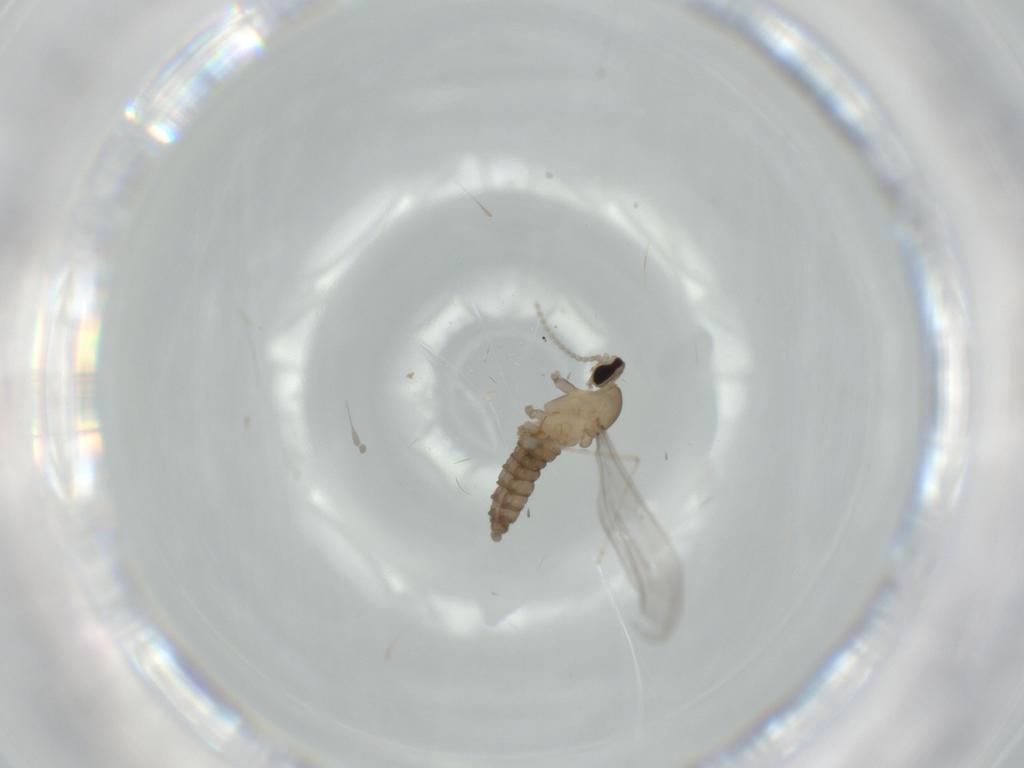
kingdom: Animalia
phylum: Arthropoda
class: Insecta
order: Diptera
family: Cecidomyiidae
